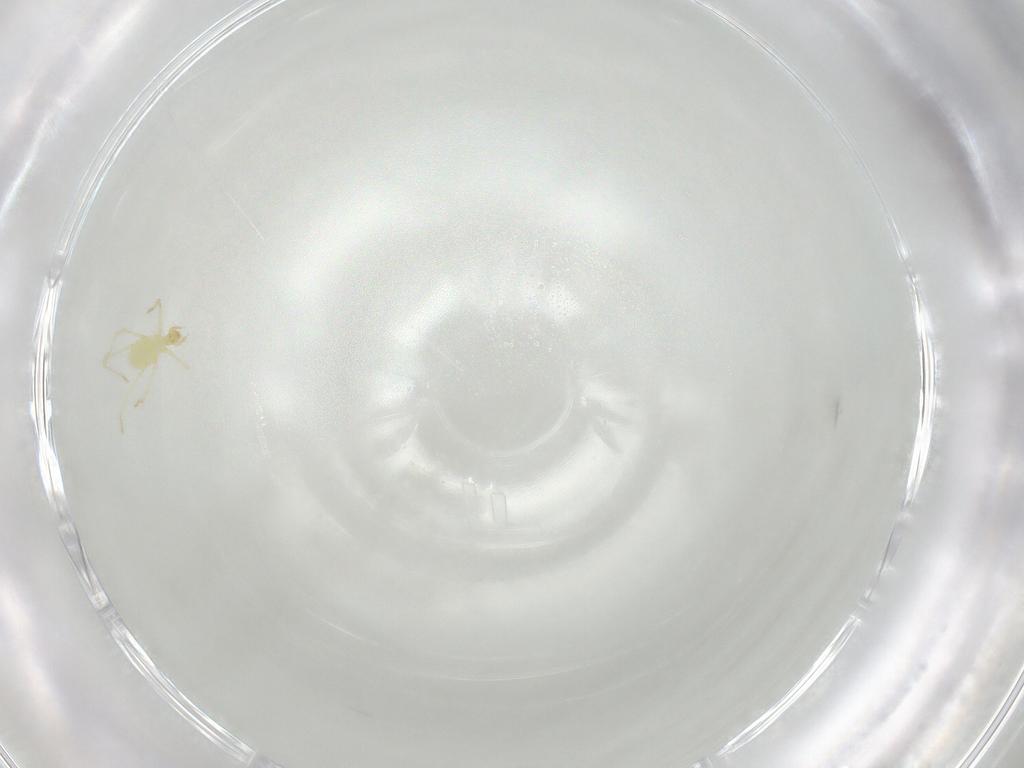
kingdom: Animalia
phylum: Arthropoda
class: Arachnida
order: Trombidiformes
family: Erythraeidae
